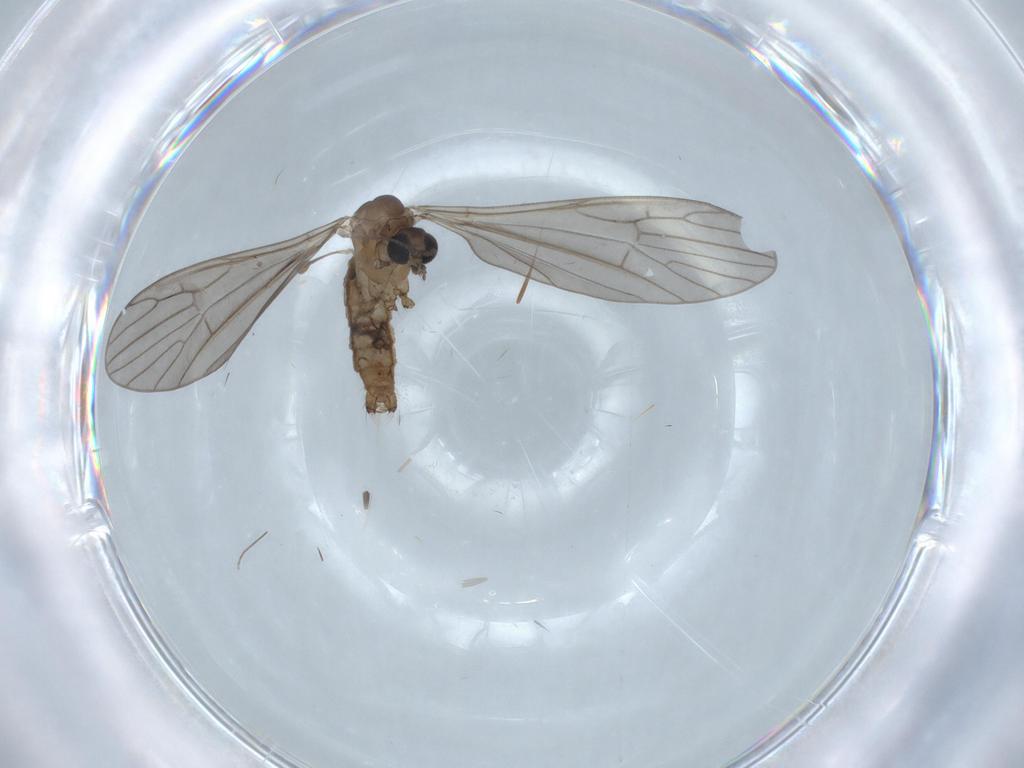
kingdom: Animalia
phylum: Arthropoda
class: Insecta
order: Diptera
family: Limoniidae
